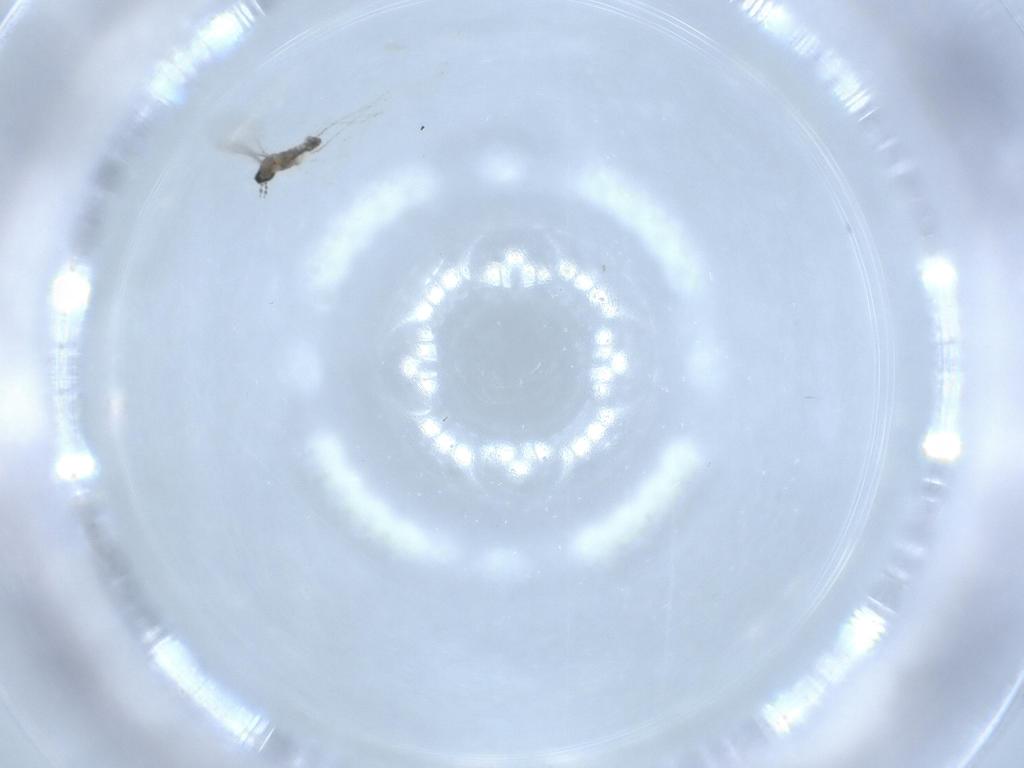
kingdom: Animalia
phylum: Arthropoda
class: Insecta
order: Diptera
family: Cecidomyiidae
